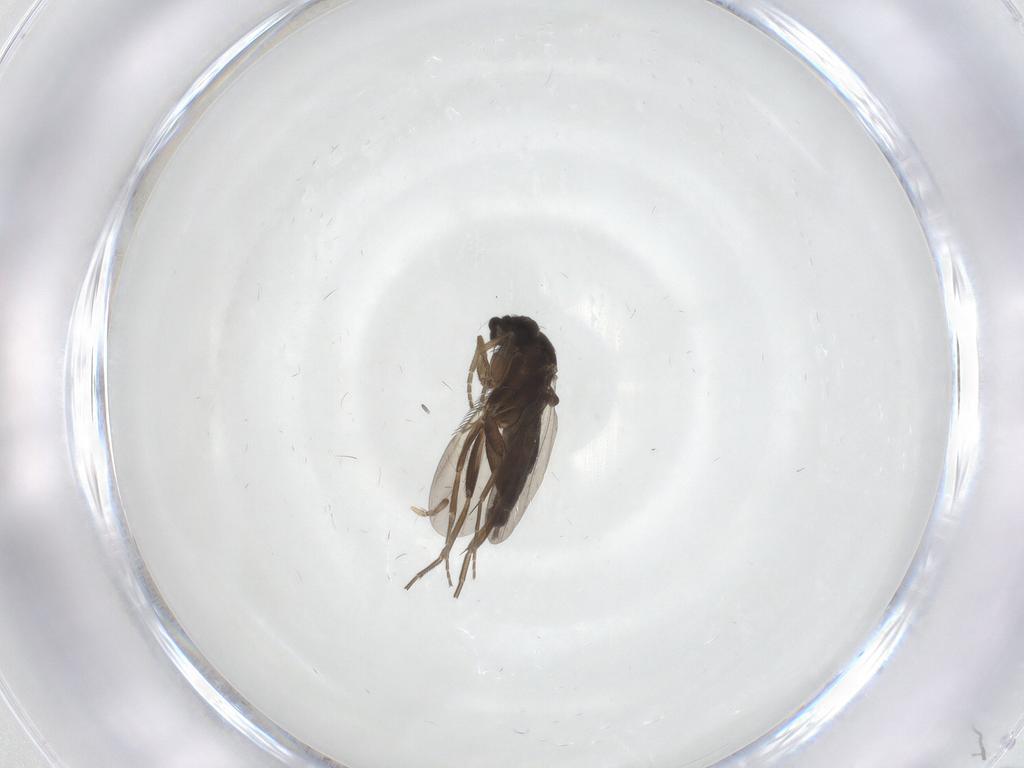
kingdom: Animalia
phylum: Arthropoda
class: Insecta
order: Diptera
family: Phoridae
